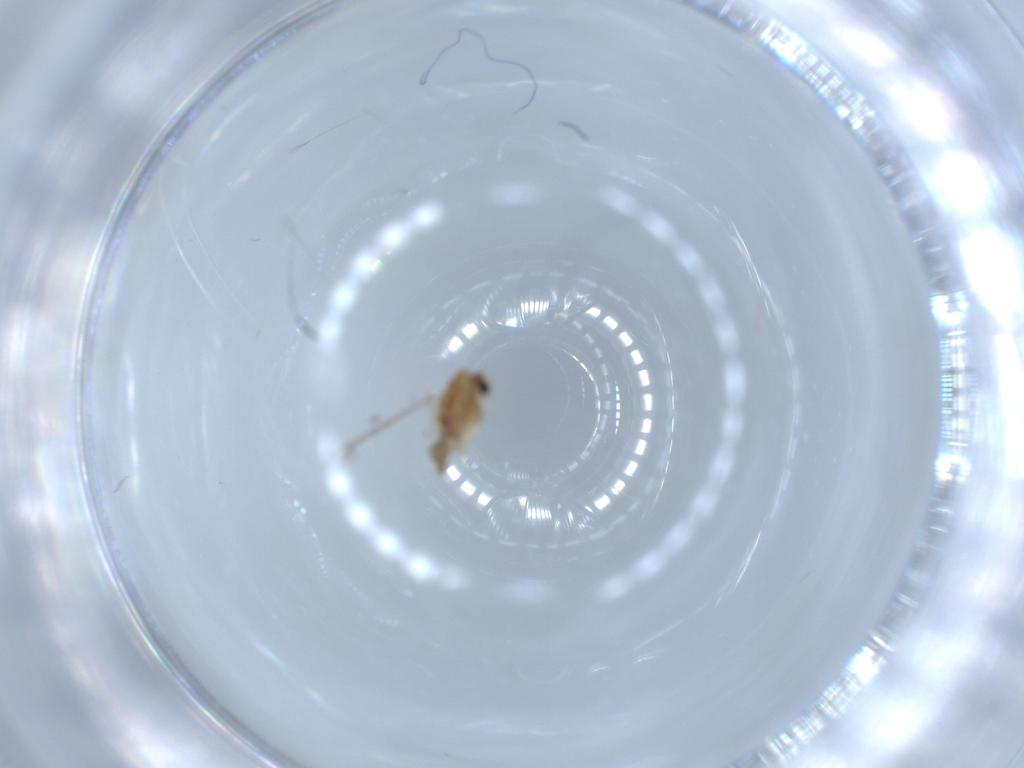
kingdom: Animalia
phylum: Arthropoda
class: Insecta
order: Diptera
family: Chironomidae
